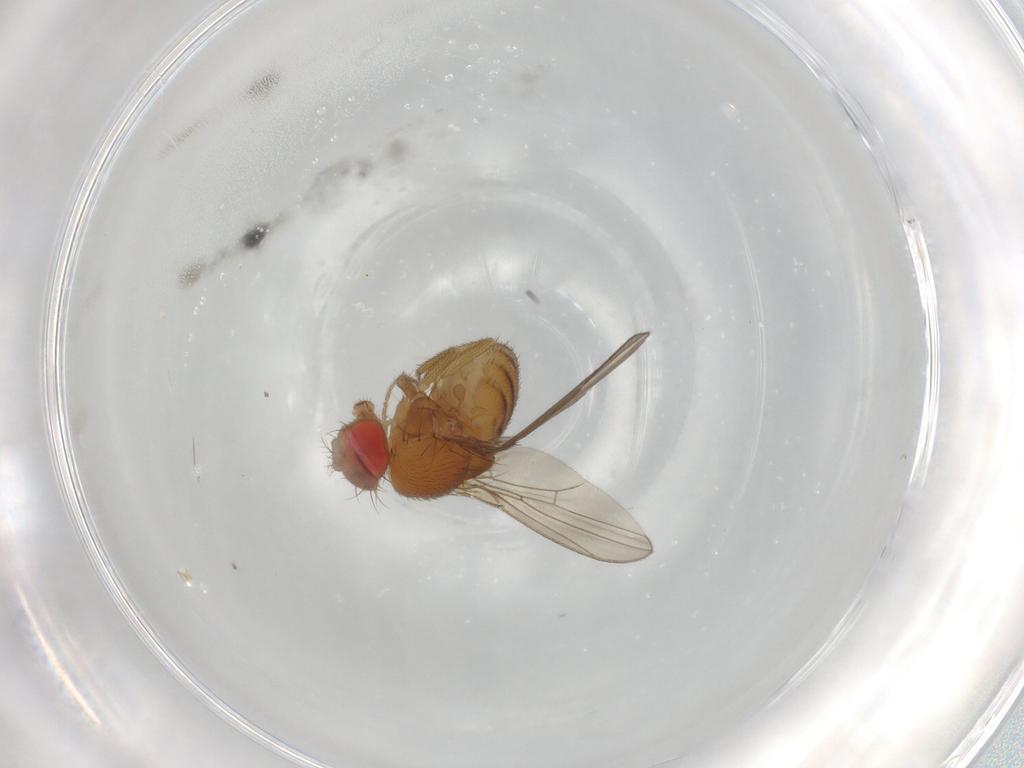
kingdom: Animalia
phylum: Arthropoda
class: Insecta
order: Diptera
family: Drosophilidae
